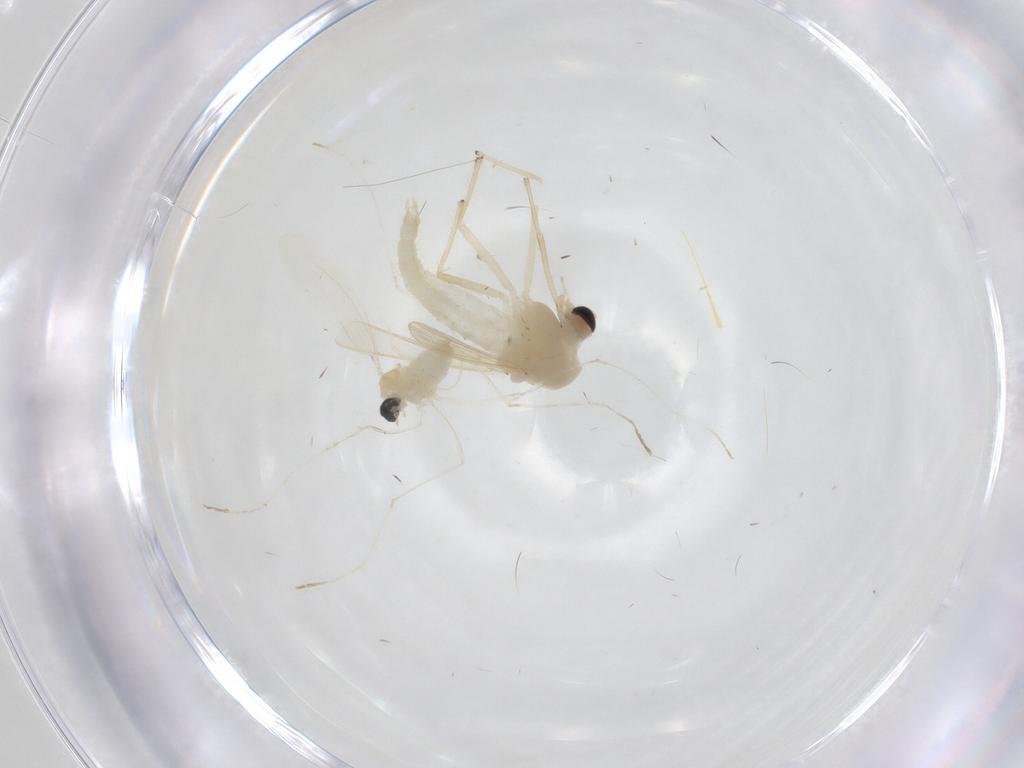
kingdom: Animalia
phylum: Arthropoda
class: Insecta
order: Diptera
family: Cecidomyiidae
